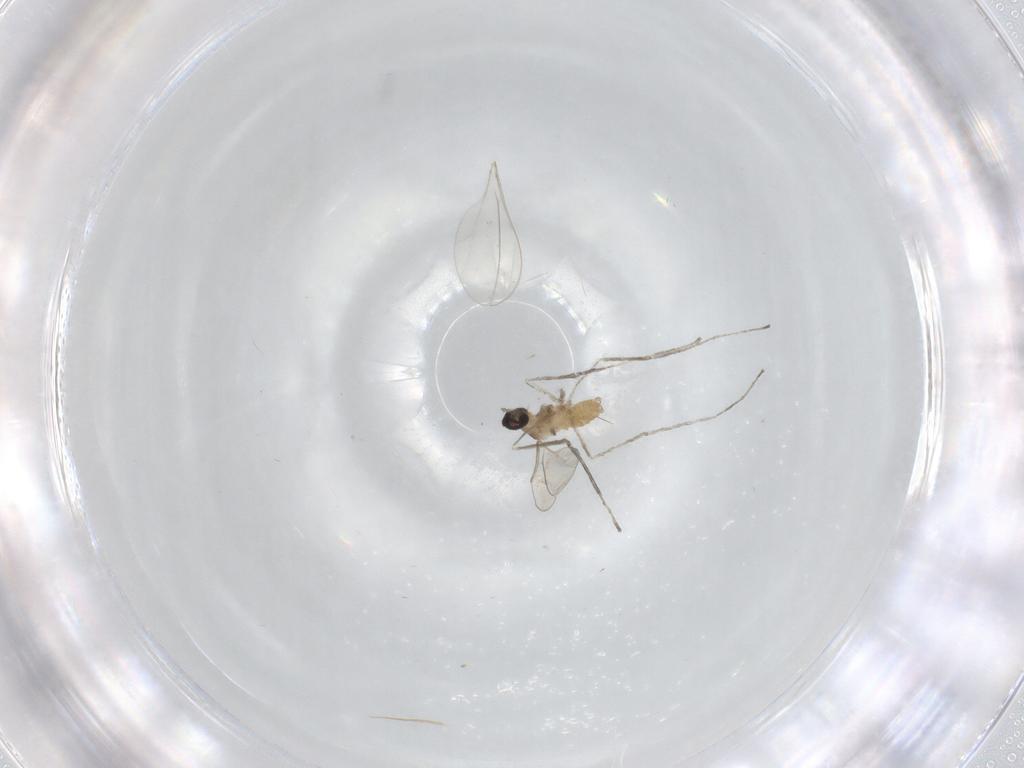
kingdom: Animalia
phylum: Arthropoda
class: Insecta
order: Diptera
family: Cecidomyiidae
